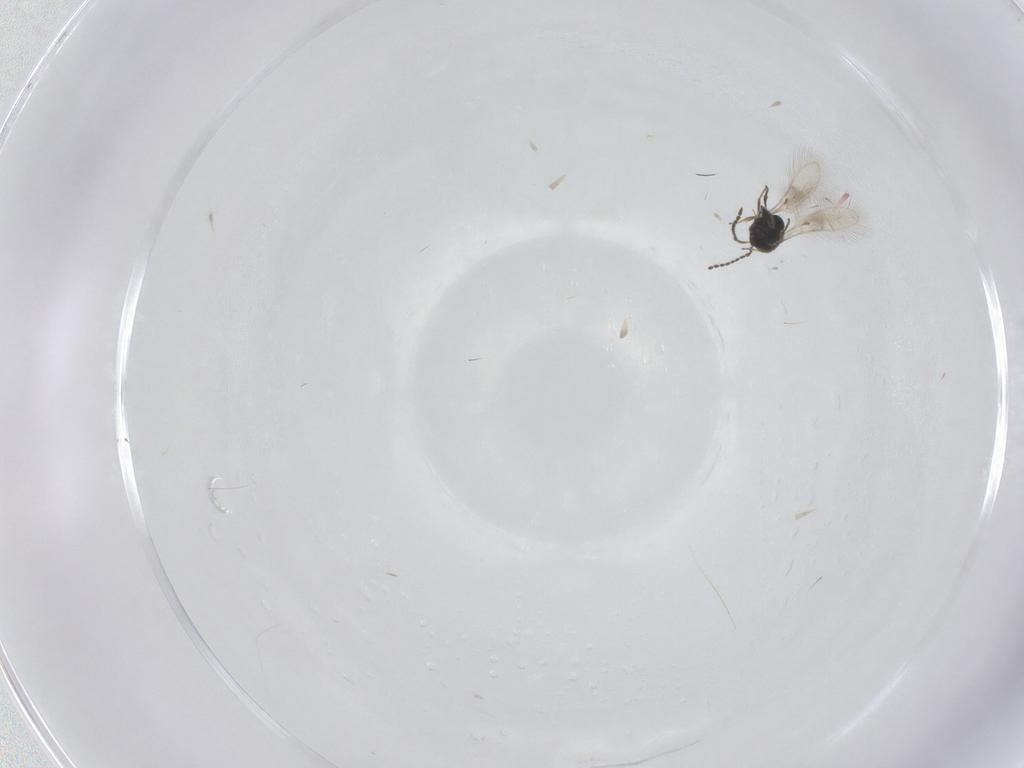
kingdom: Animalia
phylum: Arthropoda
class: Insecta
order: Hymenoptera
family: Scelionidae
